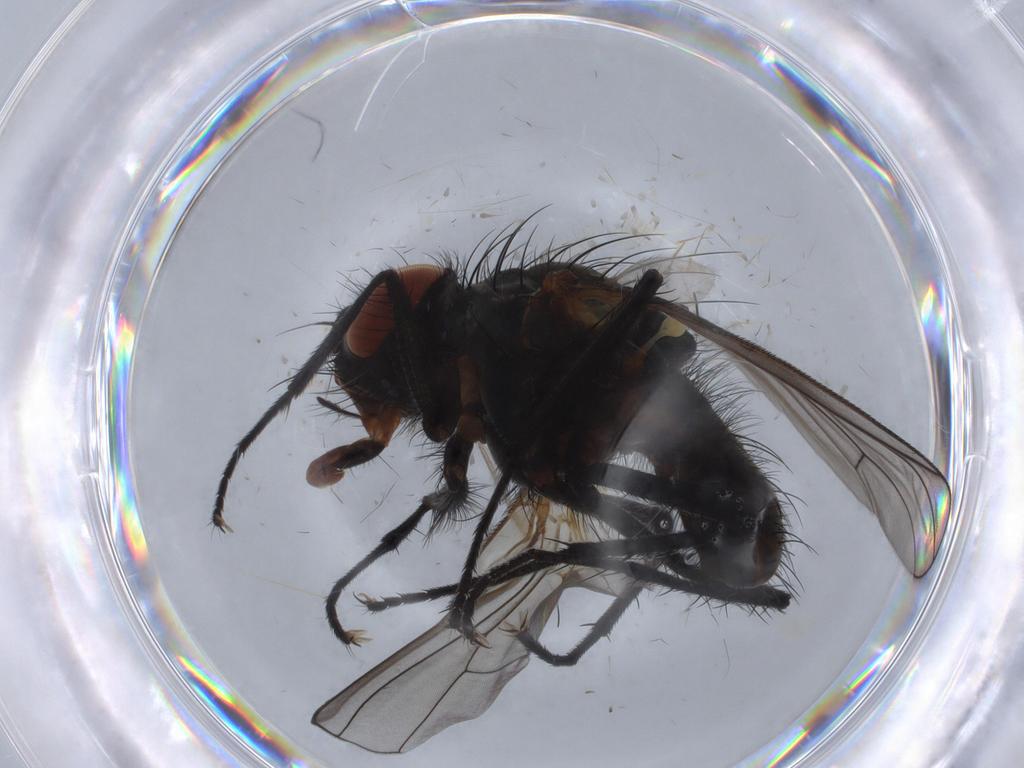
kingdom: Animalia
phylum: Arthropoda
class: Insecta
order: Diptera
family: Anthomyiidae
